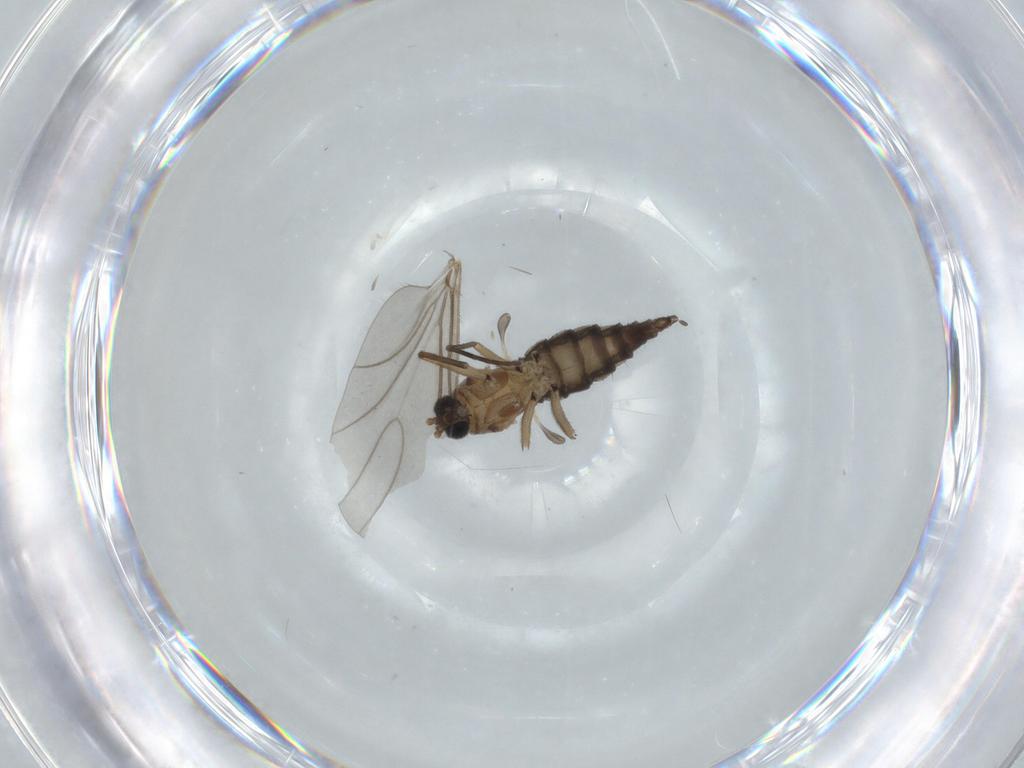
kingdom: Animalia
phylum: Arthropoda
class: Insecta
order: Diptera
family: Sciaridae
